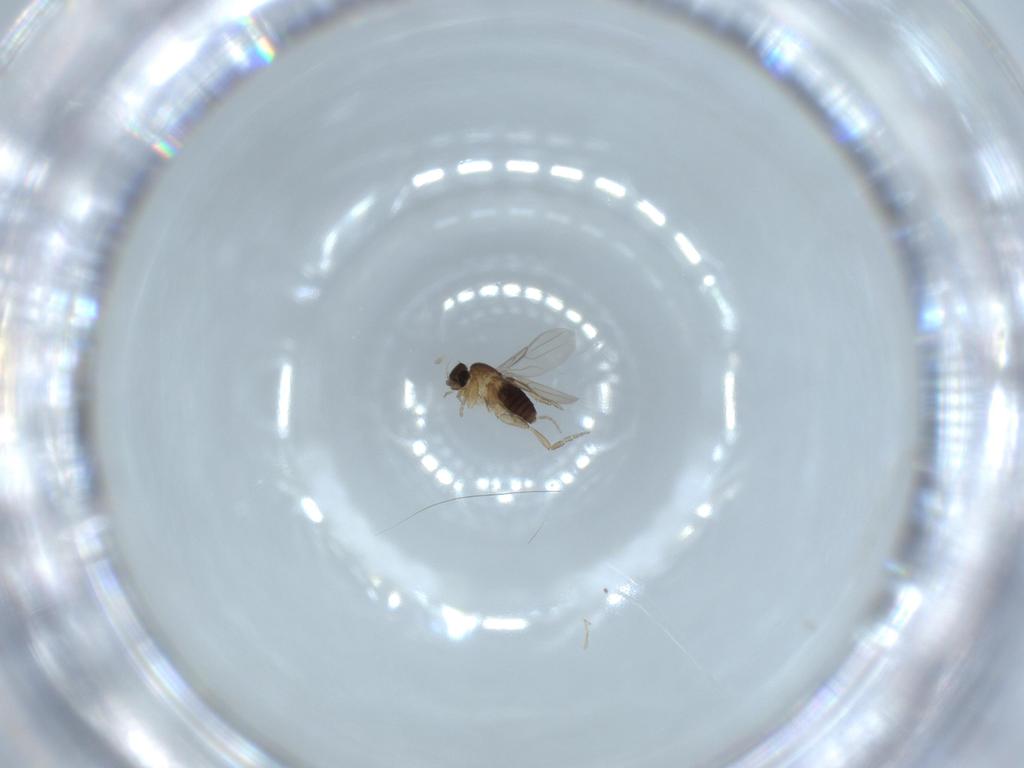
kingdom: Animalia
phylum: Arthropoda
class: Insecta
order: Diptera
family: Phoridae
